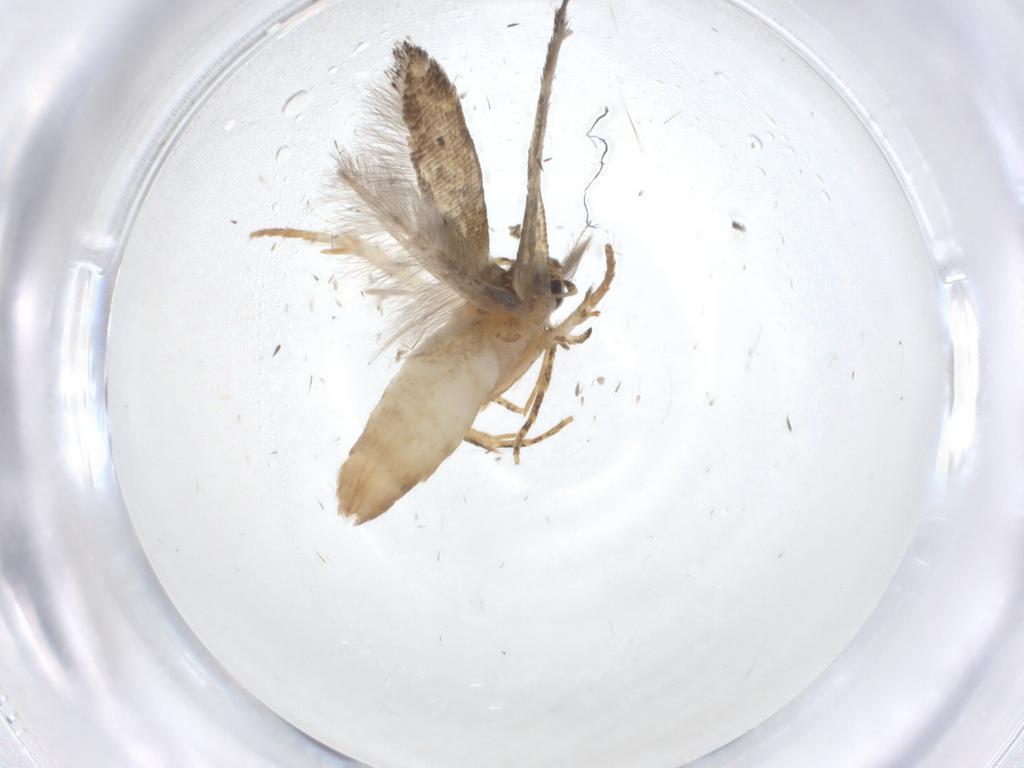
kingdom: Animalia
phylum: Arthropoda
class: Insecta
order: Lepidoptera
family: Gelechiidae
